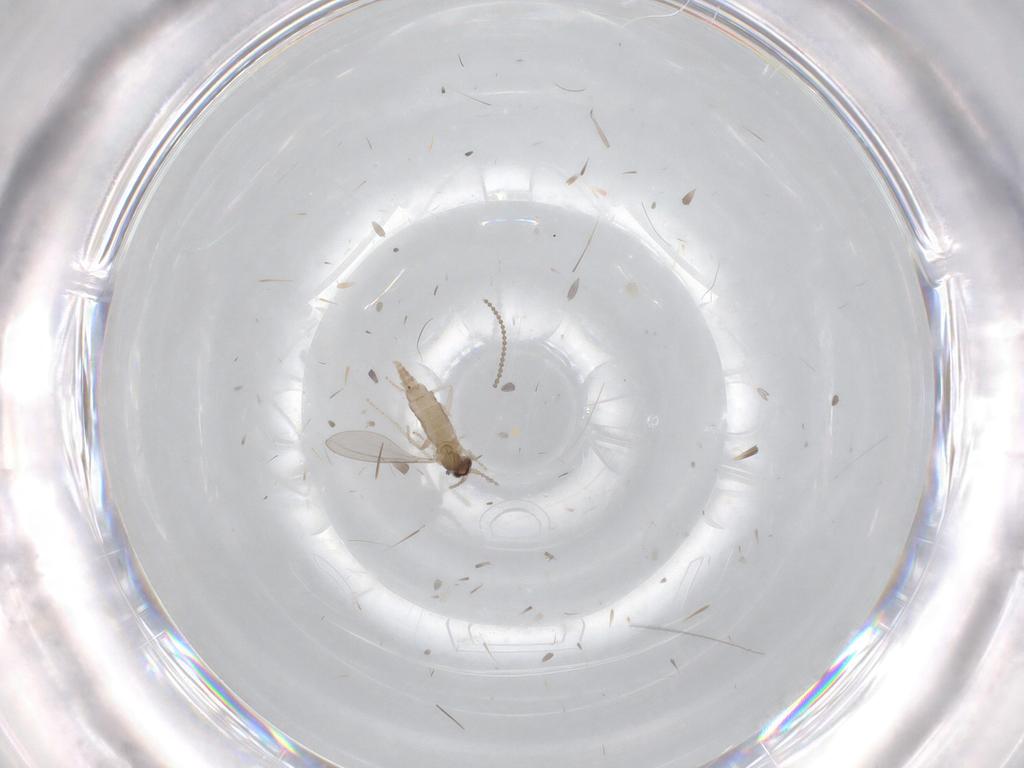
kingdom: Animalia
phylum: Arthropoda
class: Insecta
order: Diptera
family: Cecidomyiidae
